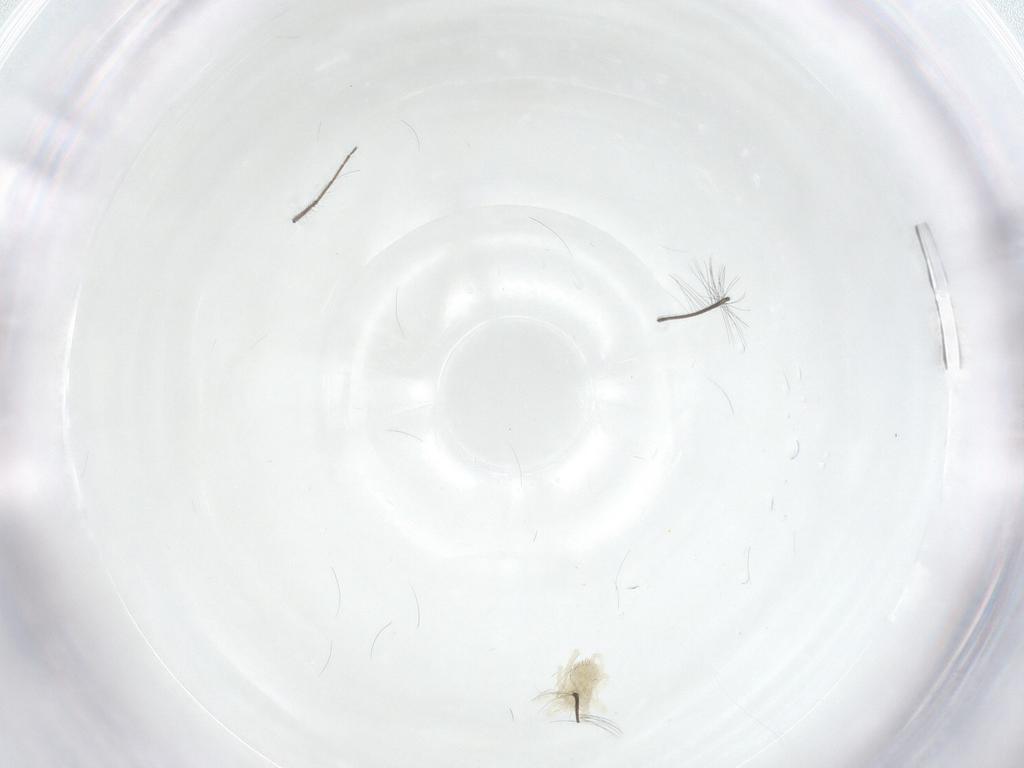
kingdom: Animalia
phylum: Arthropoda
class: Arachnida
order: Trombidiformes
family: Anystidae
